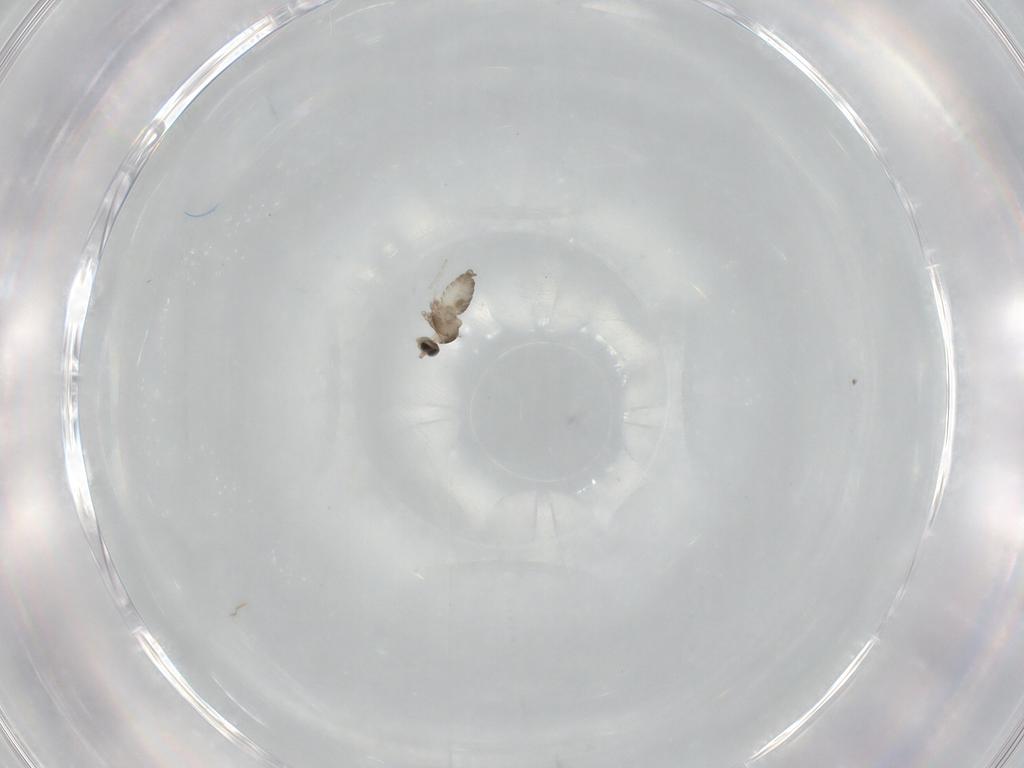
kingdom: Animalia
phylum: Arthropoda
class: Insecta
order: Diptera
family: Cecidomyiidae
